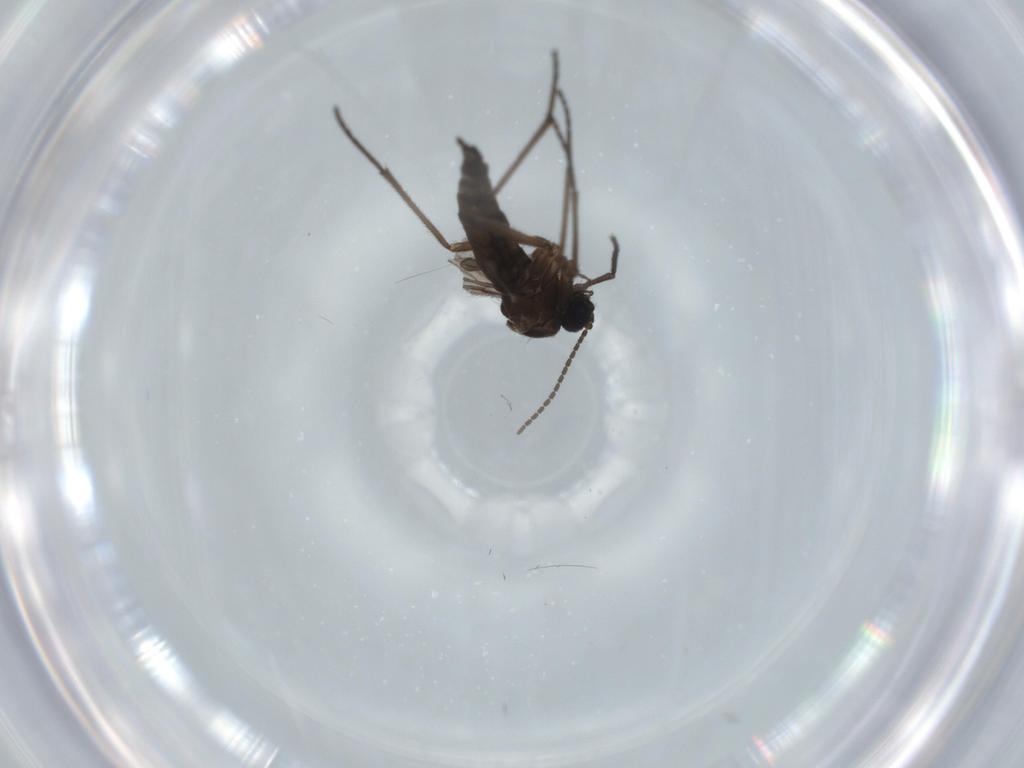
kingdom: Animalia
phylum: Arthropoda
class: Insecta
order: Diptera
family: Sciaridae
